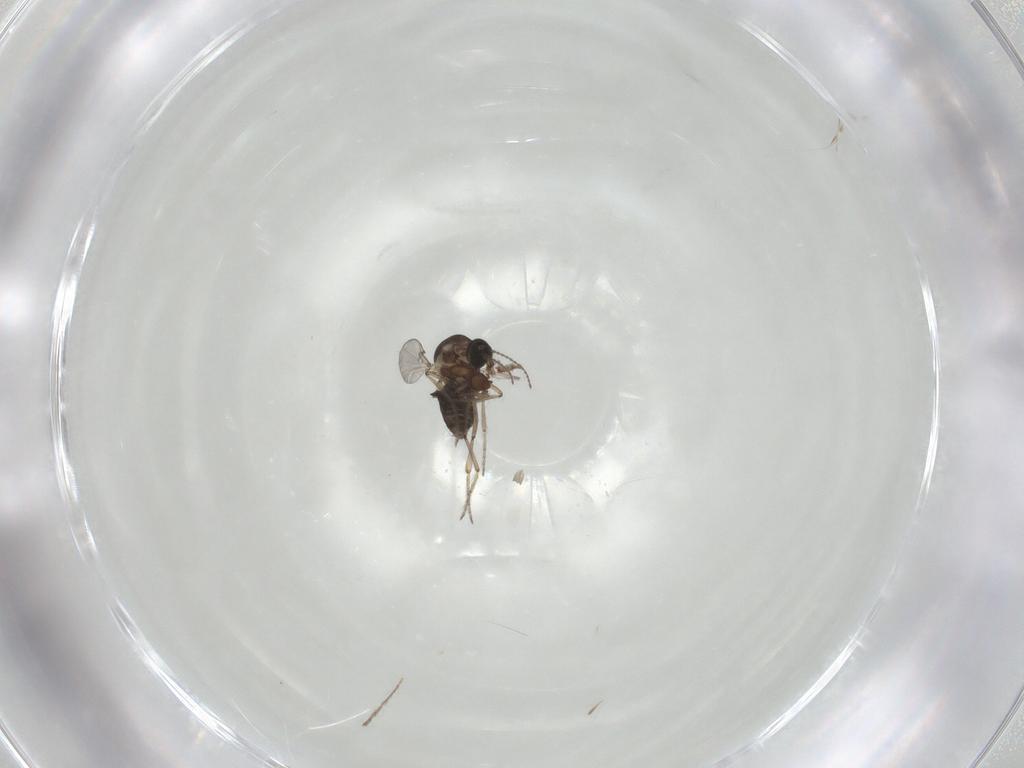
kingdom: Animalia
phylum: Arthropoda
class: Insecta
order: Diptera
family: Ceratopogonidae
